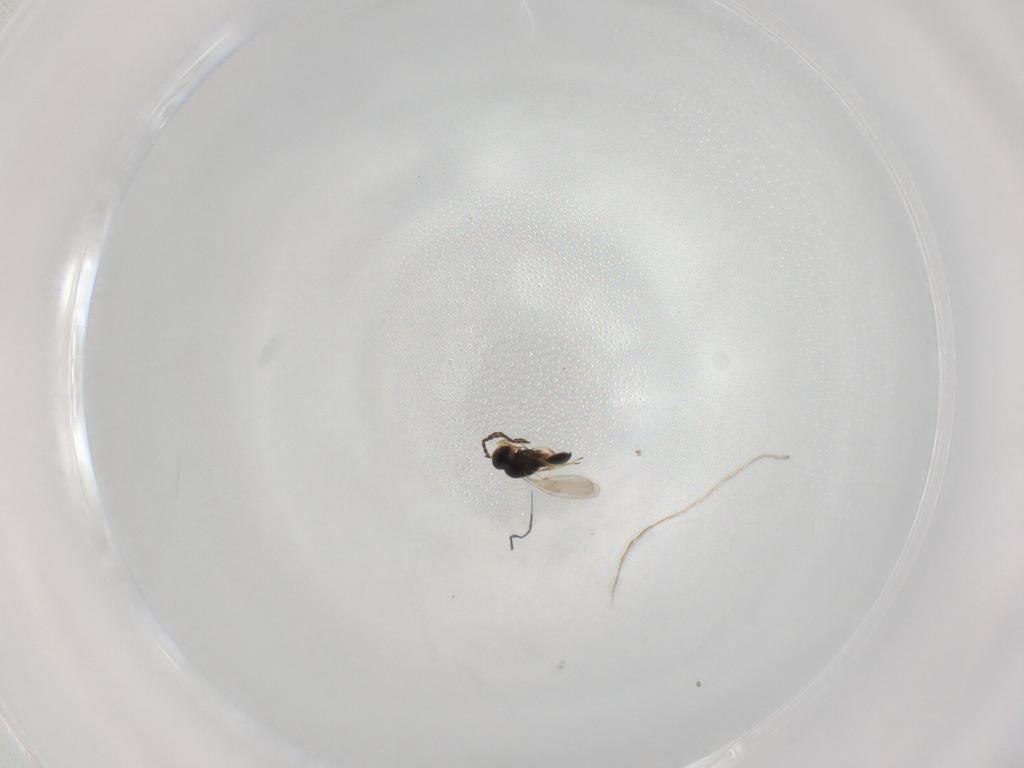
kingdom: Animalia
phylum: Arthropoda
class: Insecta
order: Hymenoptera
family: Scelionidae
